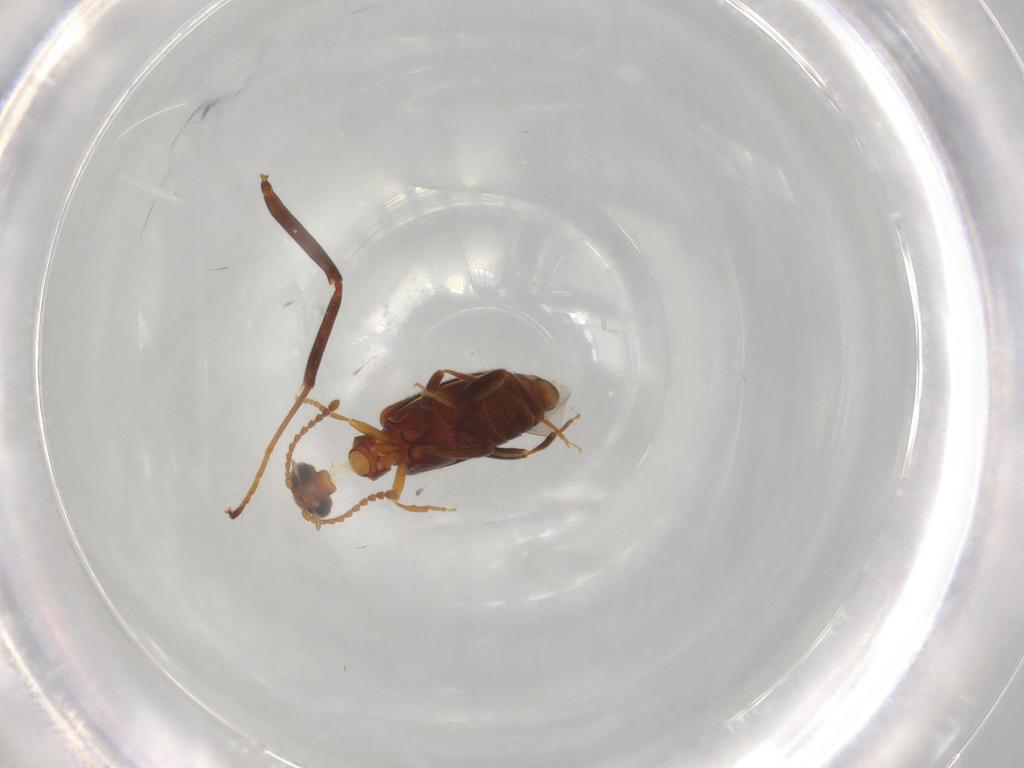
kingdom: Animalia
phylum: Arthropoda
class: Insecta
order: Coleoptera
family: Aderidae
